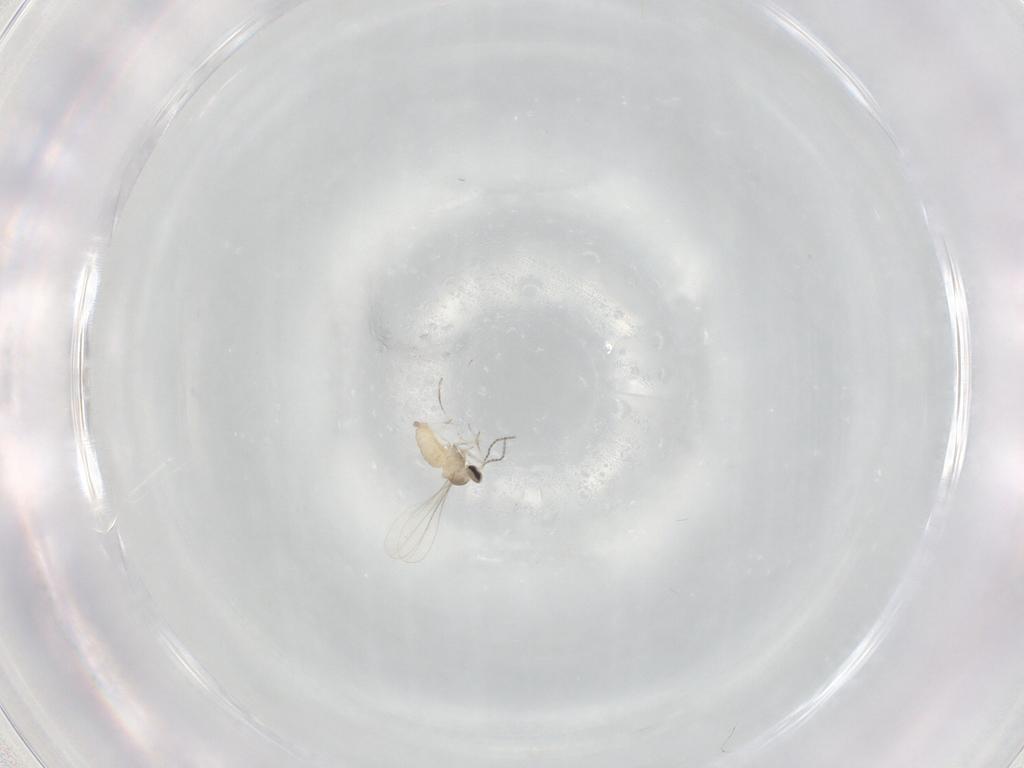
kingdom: Animalia
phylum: Arthropoda
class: Insecta
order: Diptera
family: Cecidomyiidae
